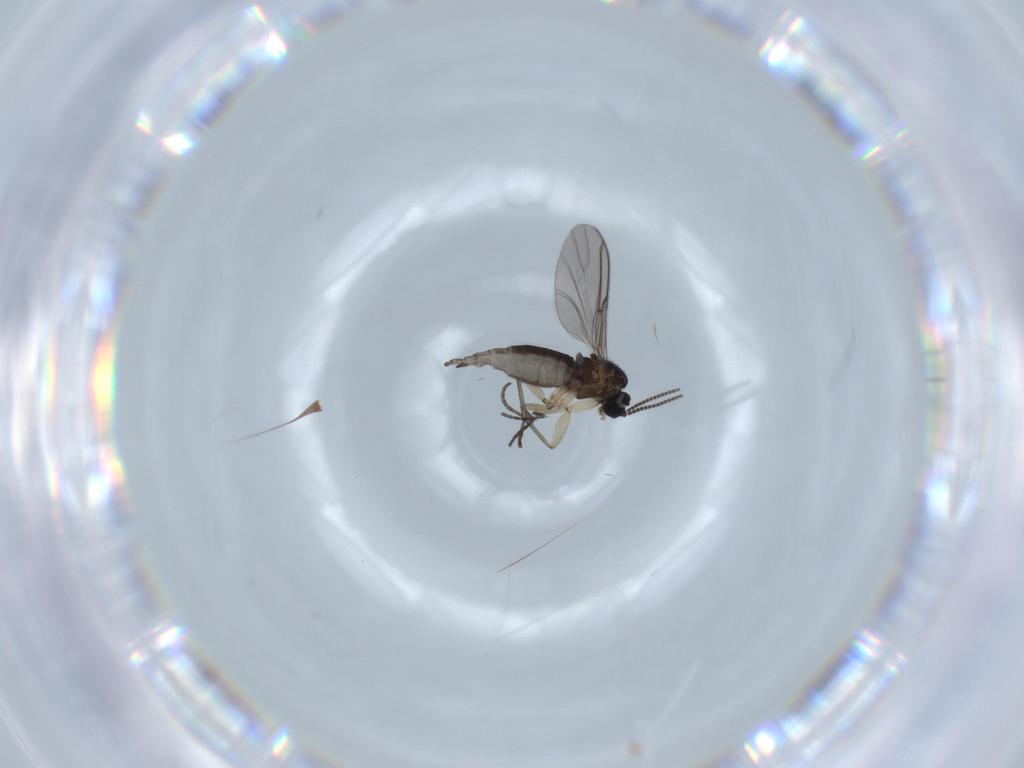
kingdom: Animalia
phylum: Arthropoda
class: Insecta
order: Diptera
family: Sciaridae
